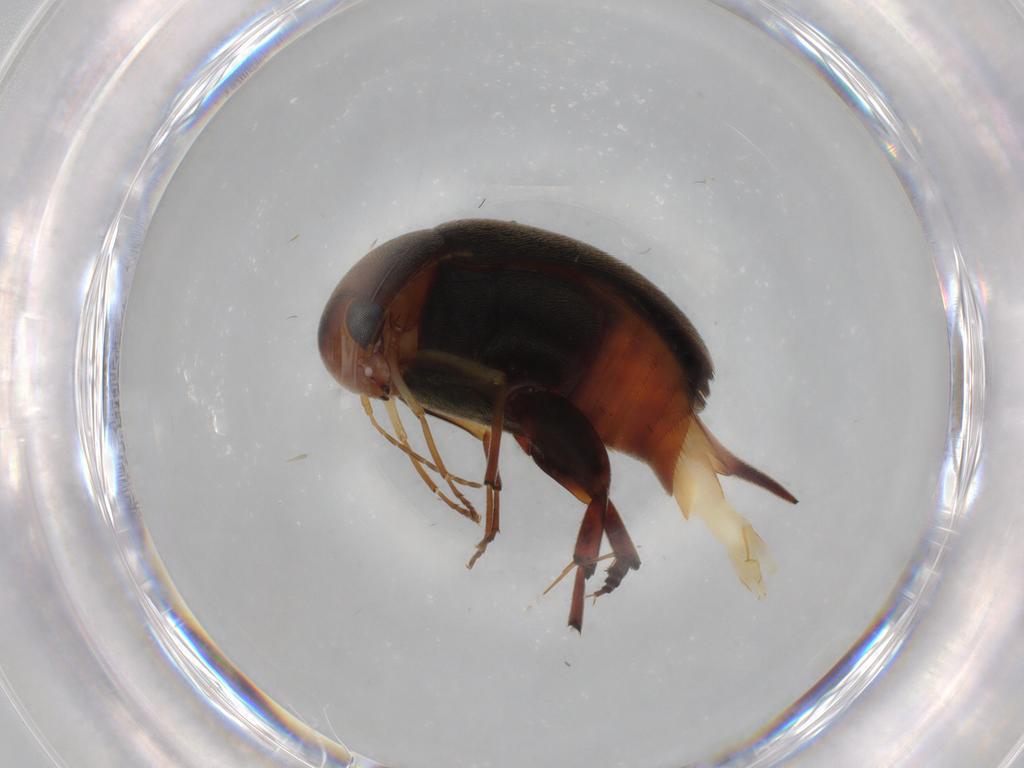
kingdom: Animalia
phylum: Arthropoda
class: Insecta
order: Coleoptera
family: Mordellidae
